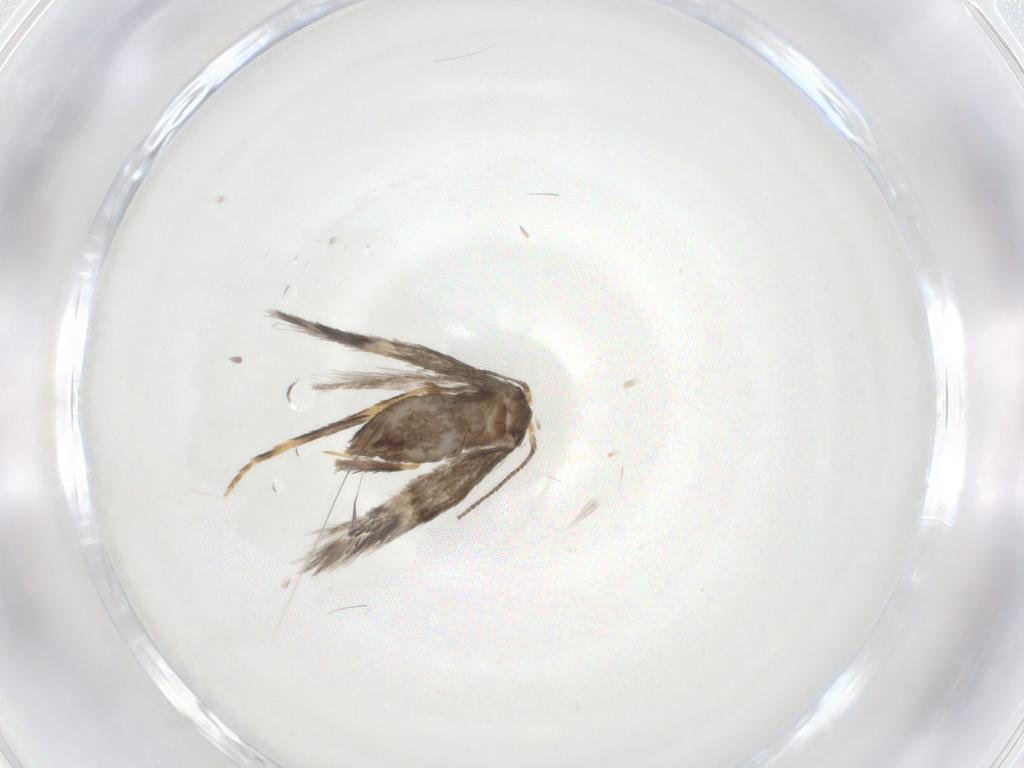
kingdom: Animalia
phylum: Arthropoda
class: Insecta
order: Lepidoptera
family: Nepticulidae
